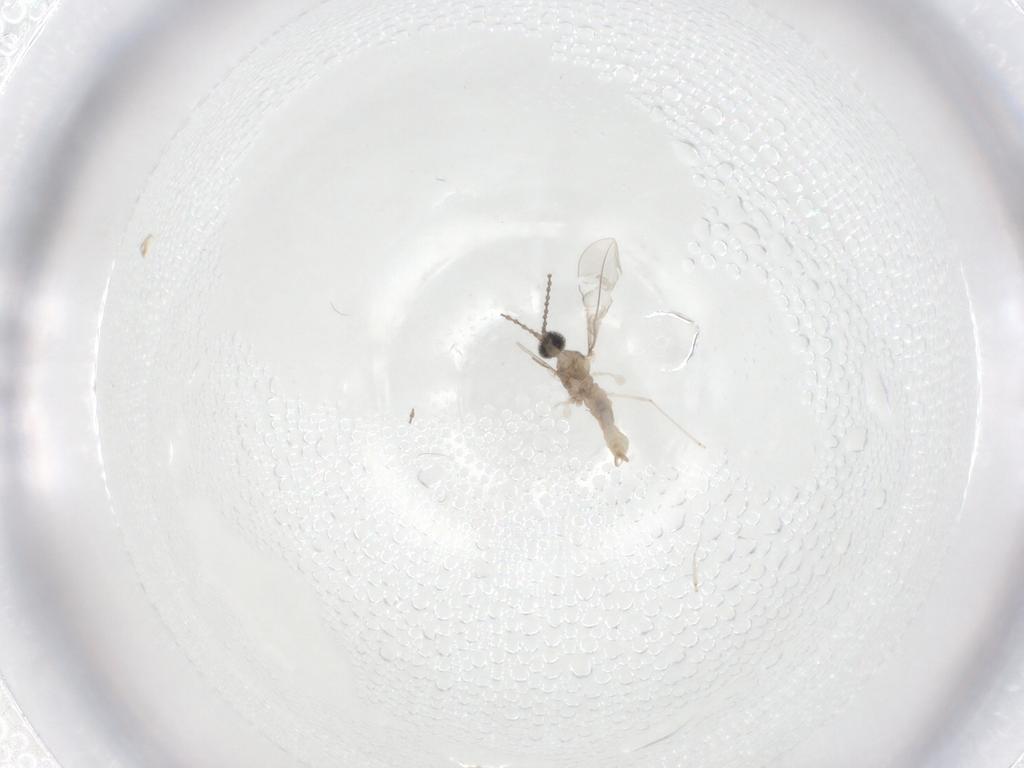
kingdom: Animalia
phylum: Arthropoda
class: Insecta
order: Diptera
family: Cecidomyiidae
